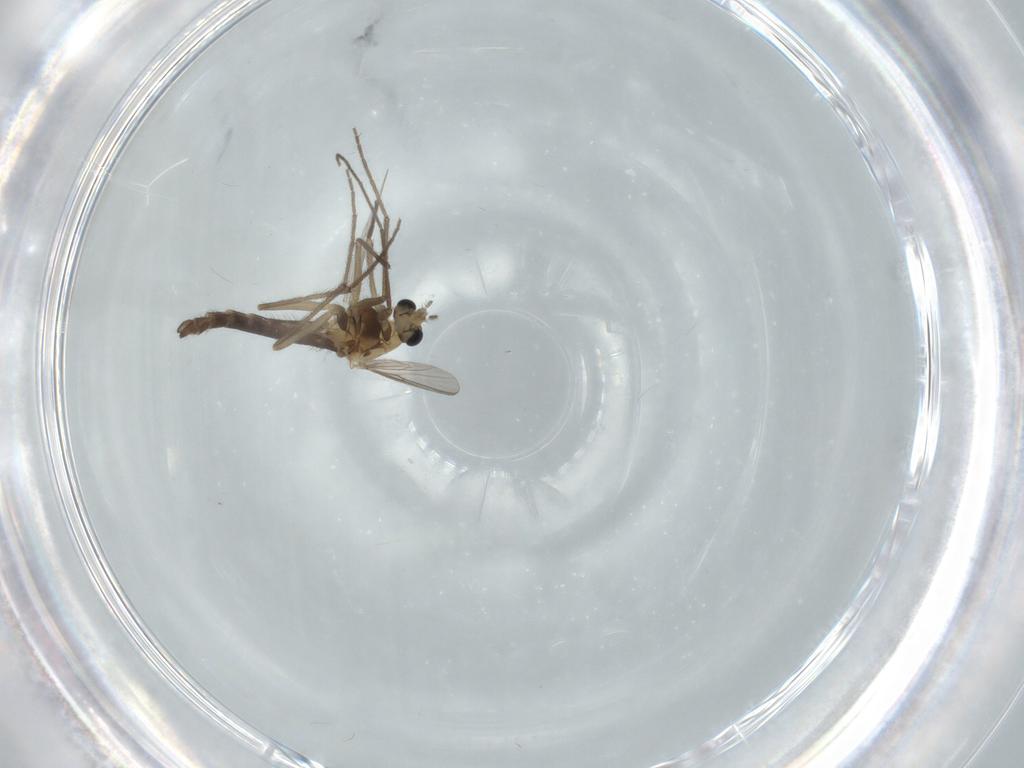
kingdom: Animalia
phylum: Arthropoda
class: Insecta
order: Diptera
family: Chironomidae
